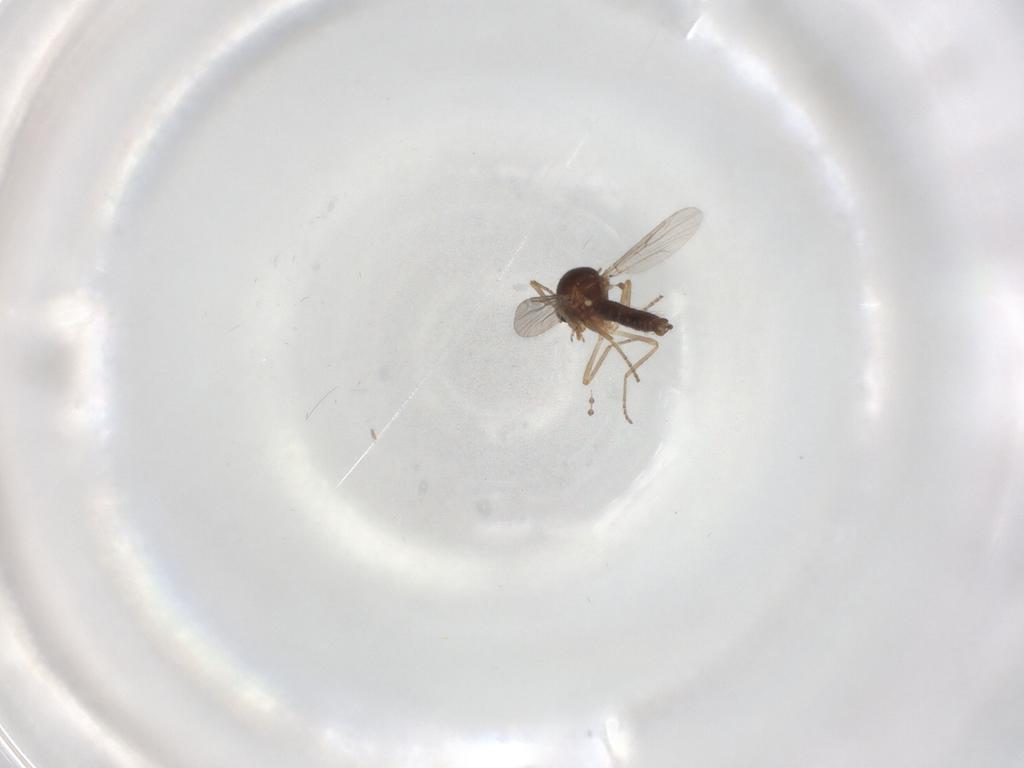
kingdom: Animalia
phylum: Arthropoda
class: Insecta
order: Diptera
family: Ceratopogonidae
